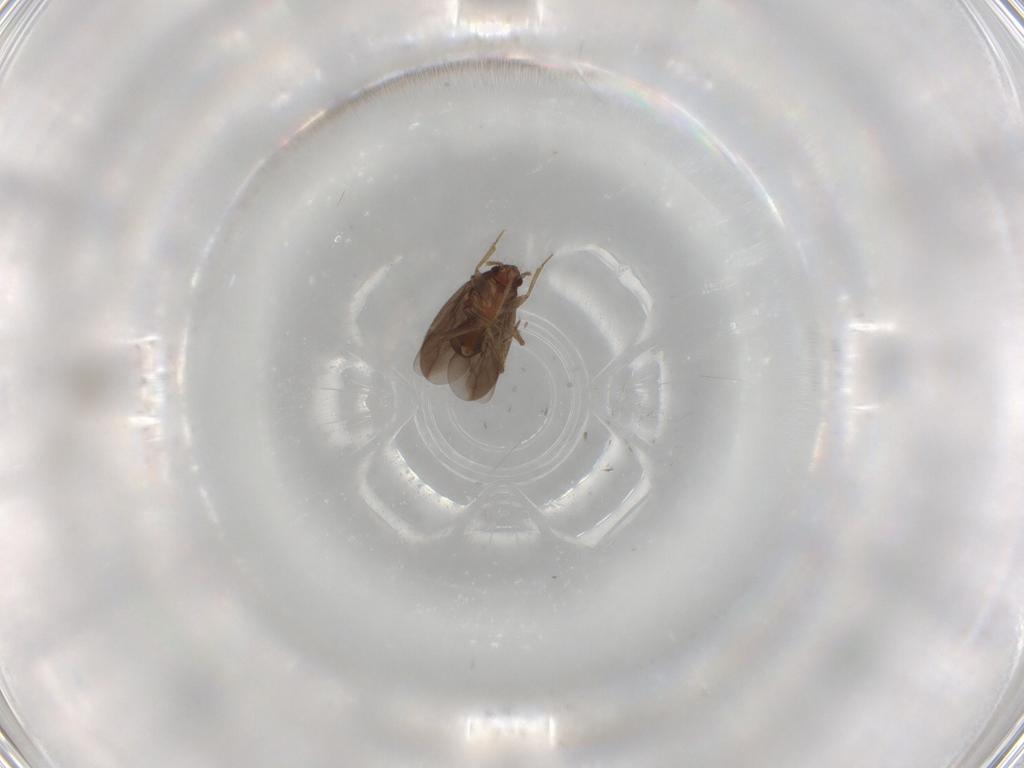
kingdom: Animalia
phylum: Arthropoda
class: Insecta
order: Hemiptera
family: Ceratocombidae
